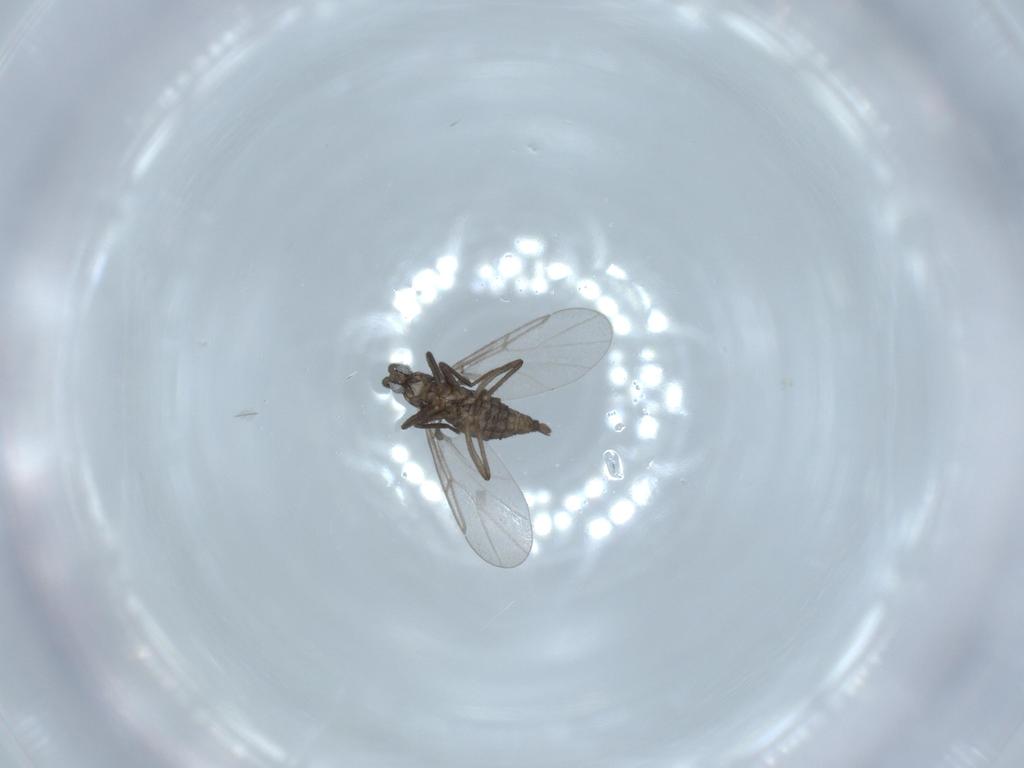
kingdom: Animalia
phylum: Arthropoda
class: Insecta
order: Diptera
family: Cecidomyiidae
